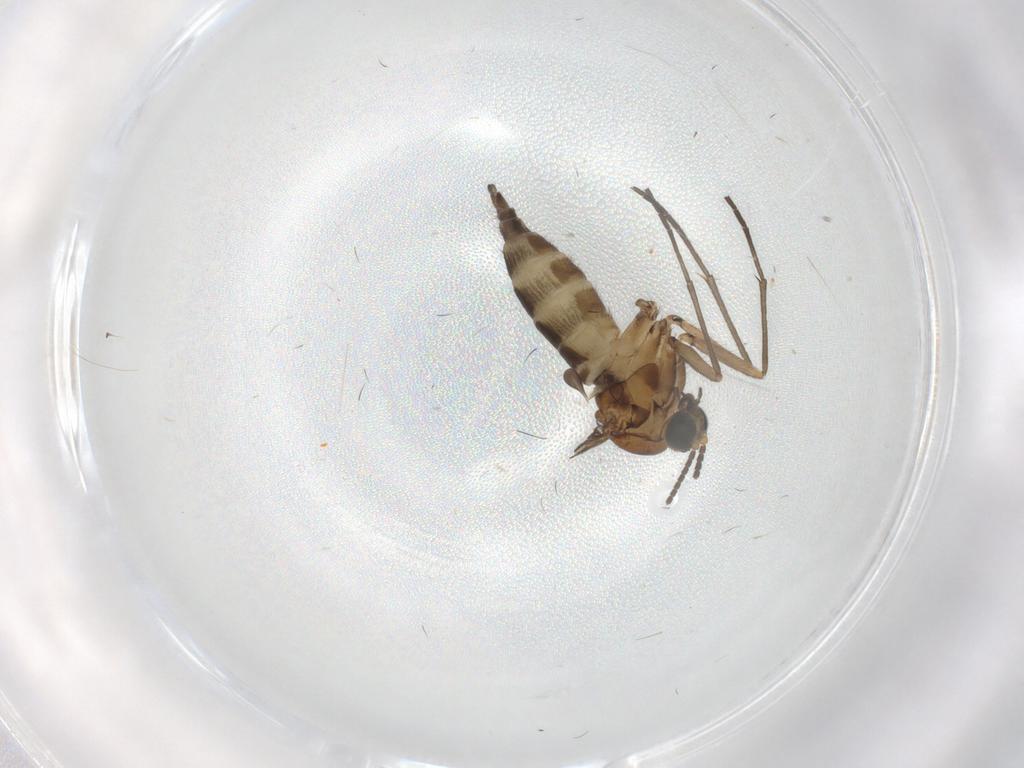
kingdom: Animalia
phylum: Arthropoda
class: Insecta
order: Diptera
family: Sciaridae
